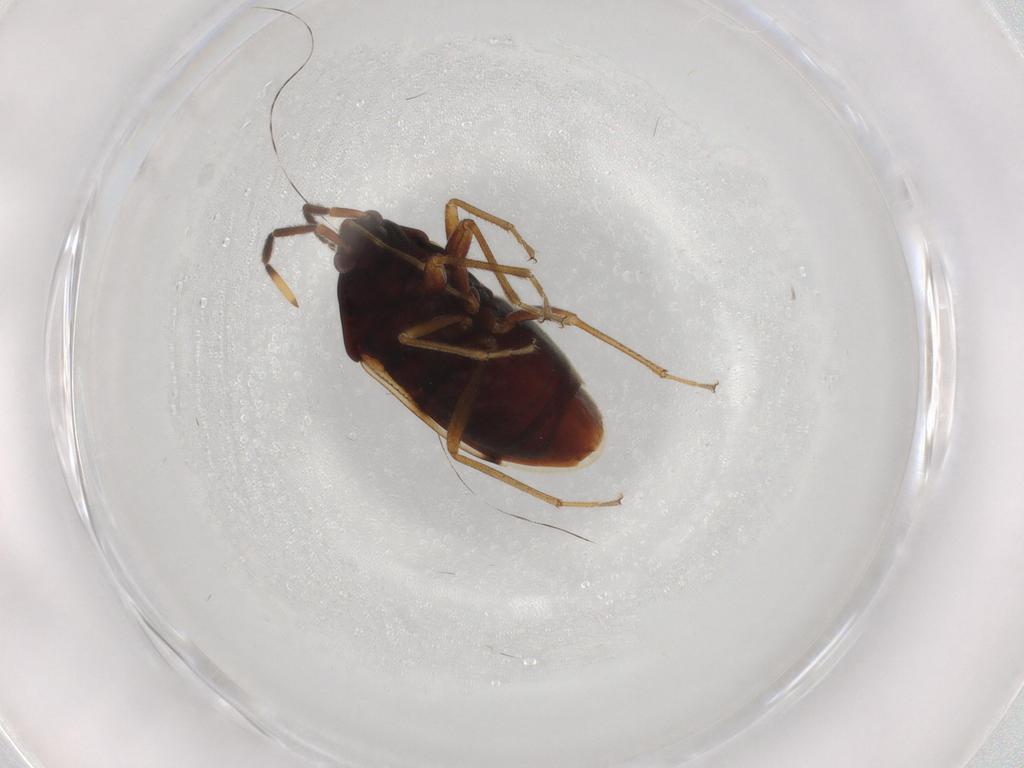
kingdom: Animalia
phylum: Arthropoda
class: Insecta
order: Hemiptera
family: Rhyparochromidae
